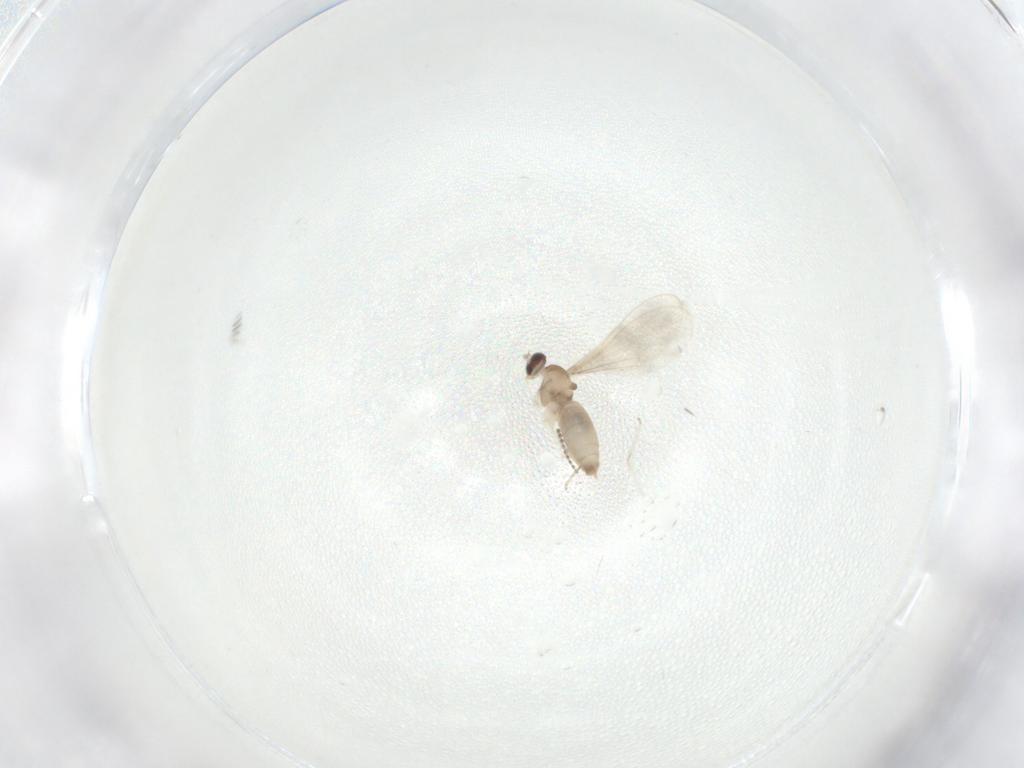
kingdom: Animalia
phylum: Arthropoda
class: Insecta
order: Diptera
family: Cecidomyiidae
